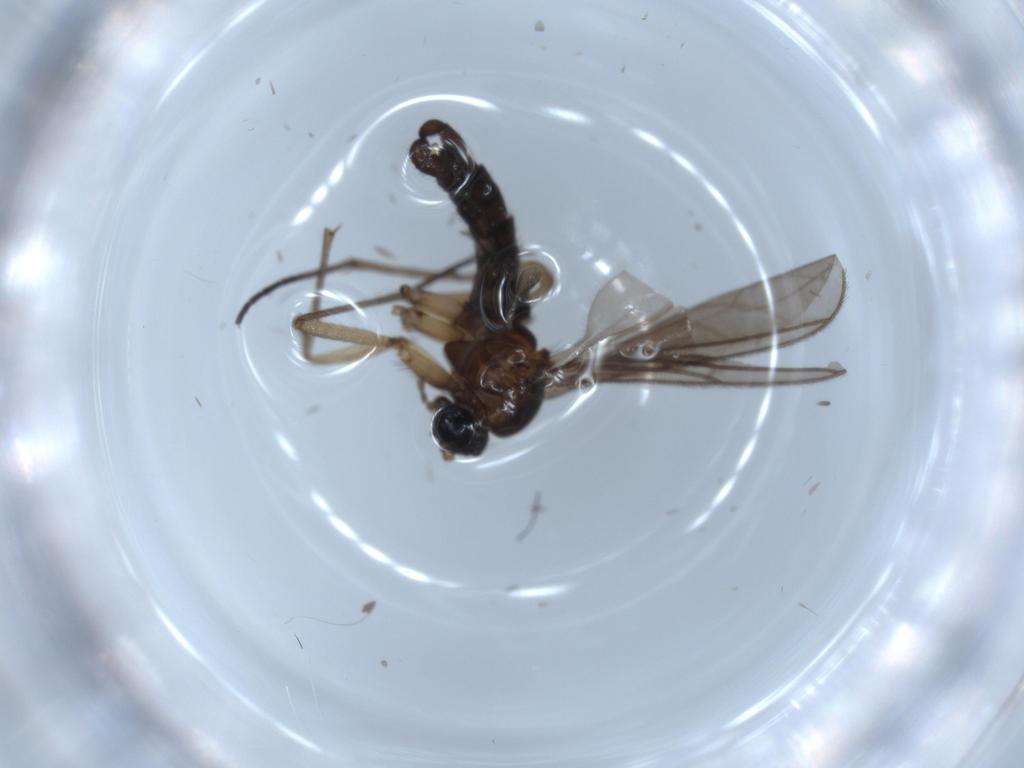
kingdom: Animalia
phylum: Arthropoda
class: Insecta
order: Diptera
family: Sciaridae
